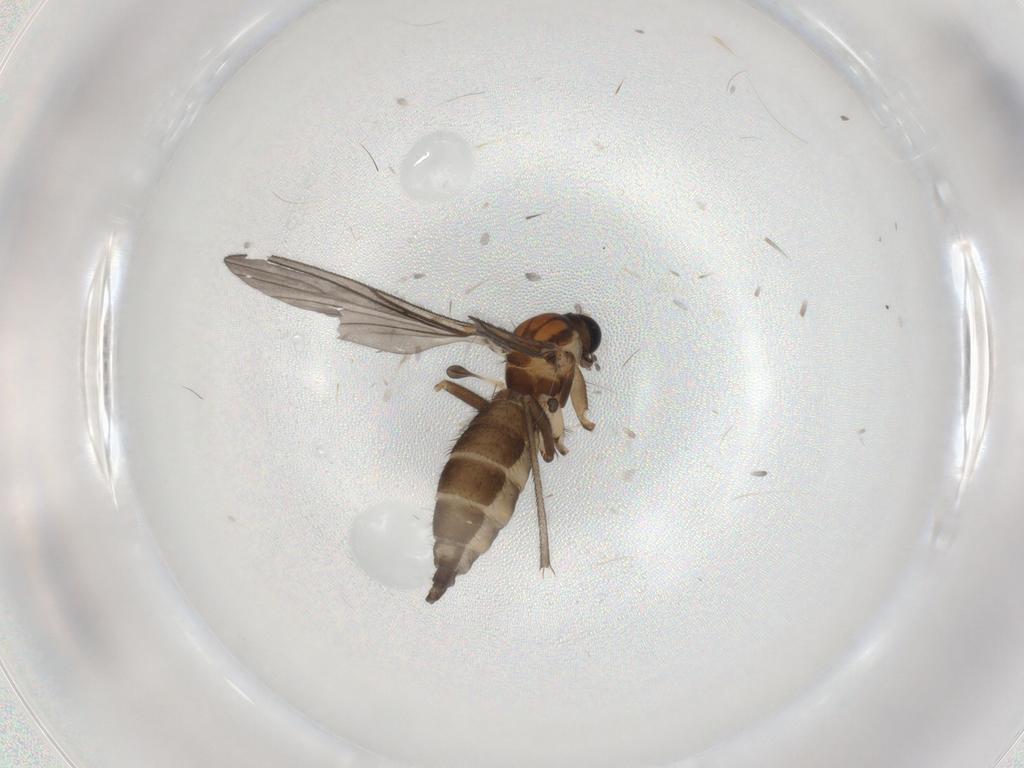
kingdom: Animalia
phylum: Arthropoda
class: Insecta
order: Diptera
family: Sciaridae
